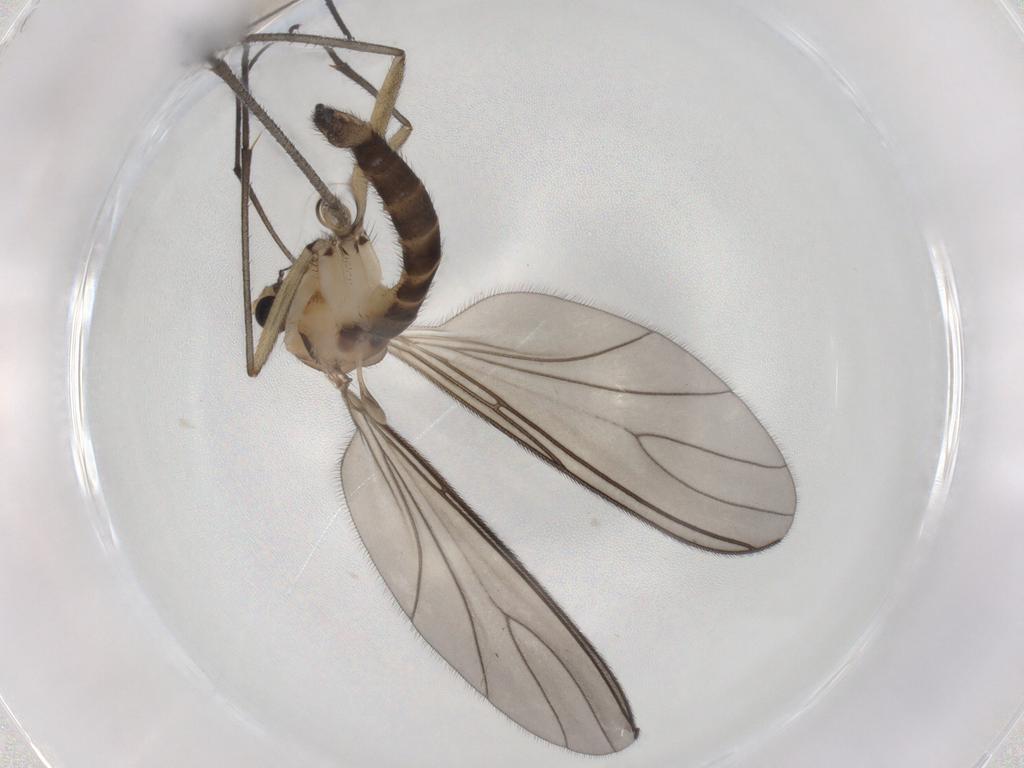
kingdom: Animalia
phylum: Arthropoda
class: Insecta
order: Diptera
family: Sciaridae
